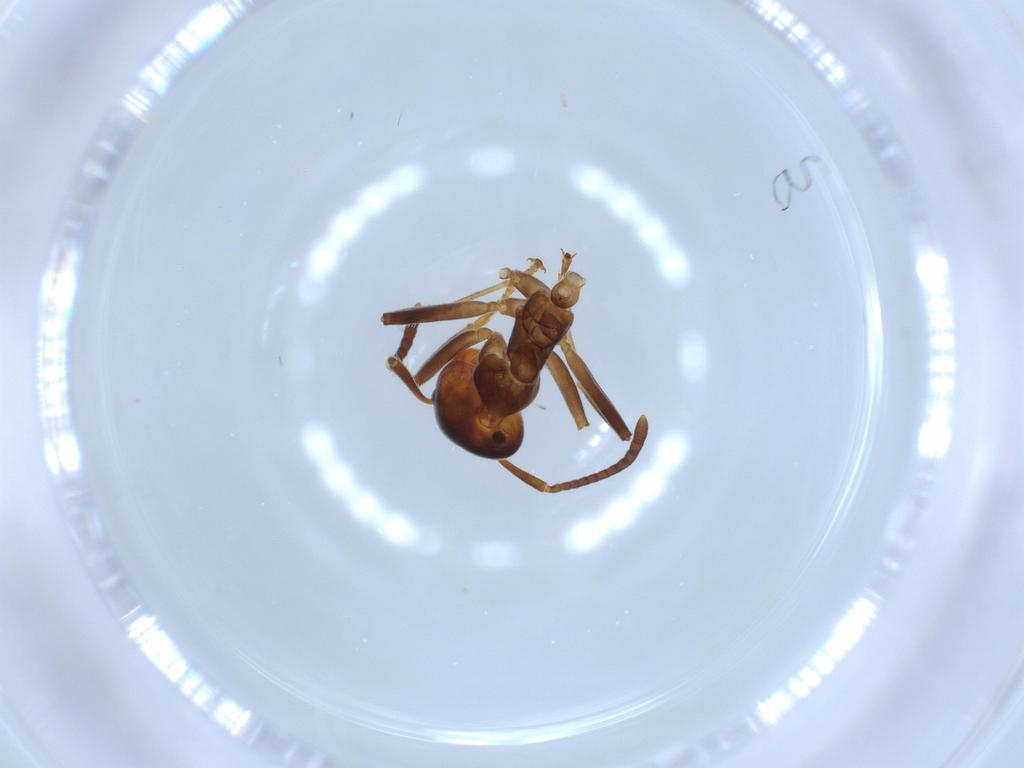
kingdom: Animalia
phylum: Arthropoda
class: Insecta
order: Hymenoptera
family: Formicidae
